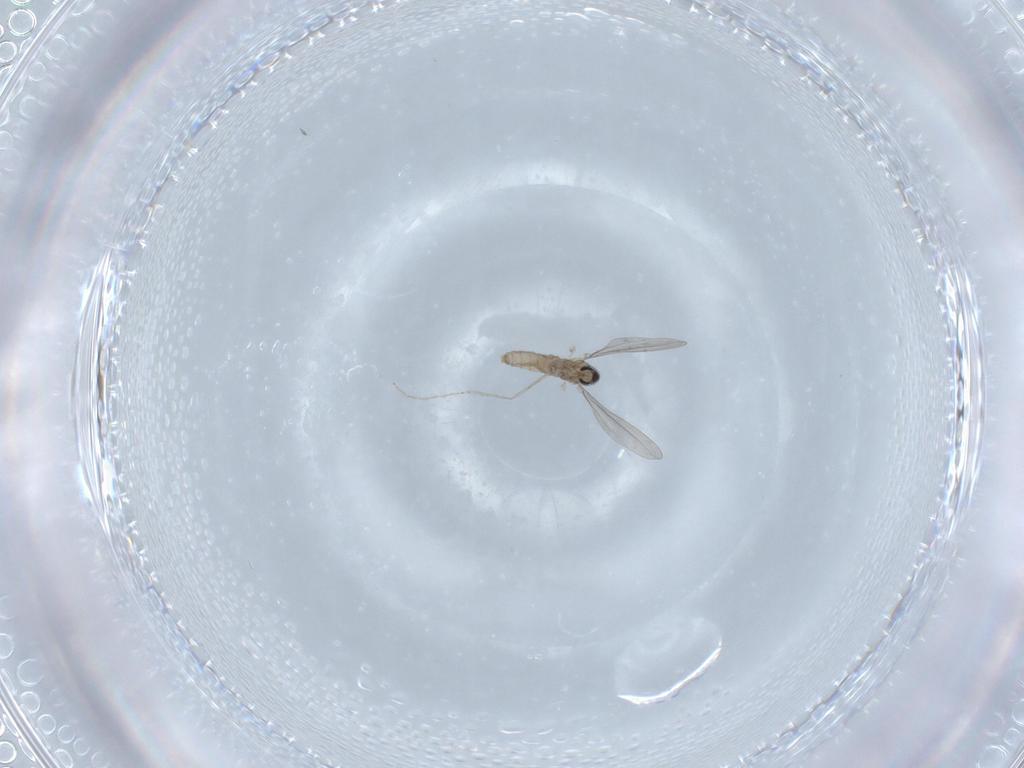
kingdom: Animalia
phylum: Arthropoda
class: Insecta
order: Diptera
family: Cecidomyiidae
